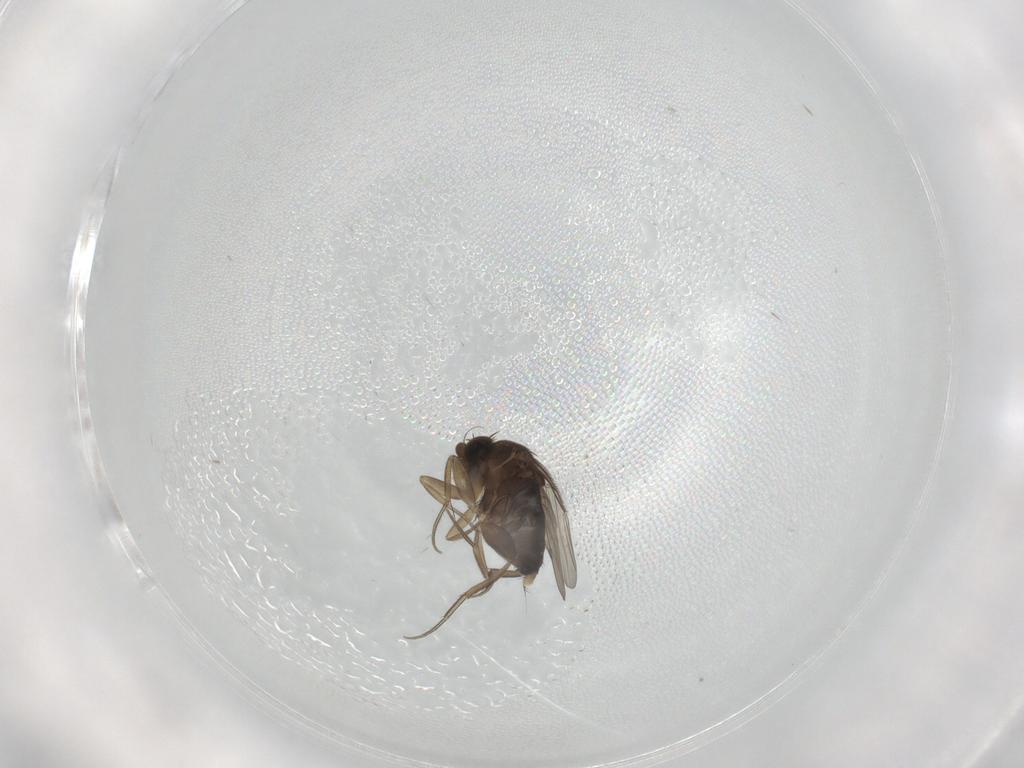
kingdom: Animalia
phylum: Arthropoda
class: Insecta
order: Diptera
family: Phoridae
